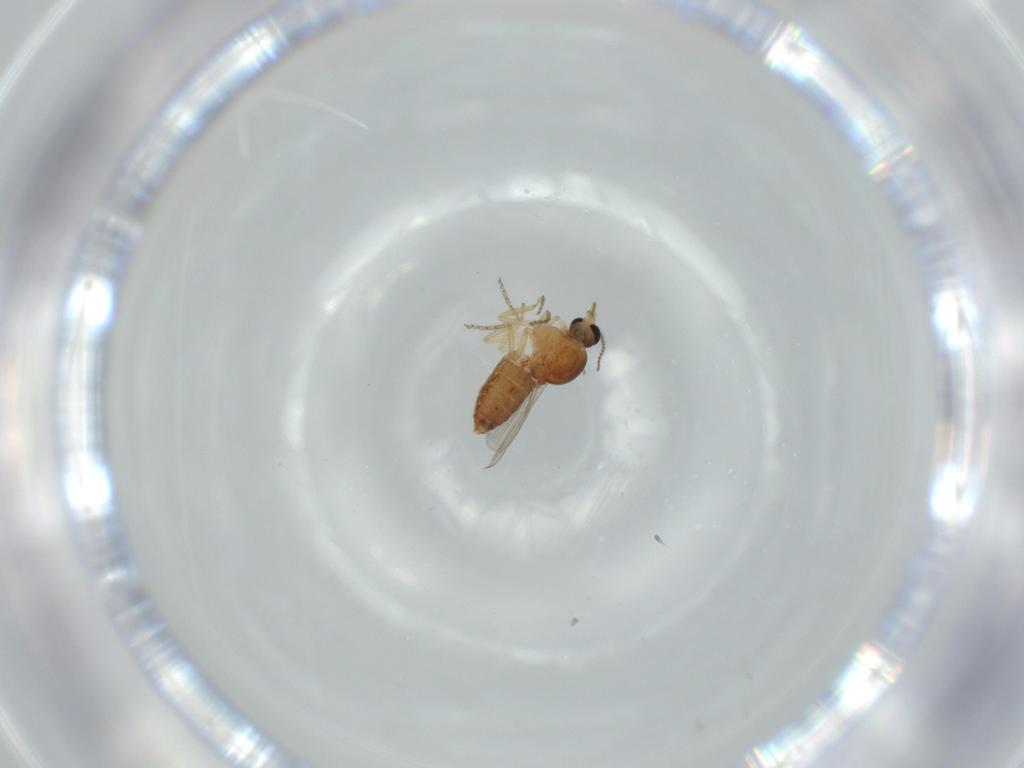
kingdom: Animalia
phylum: Arthropoda
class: Insecta
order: Diptera
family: Ceratopogonidae
